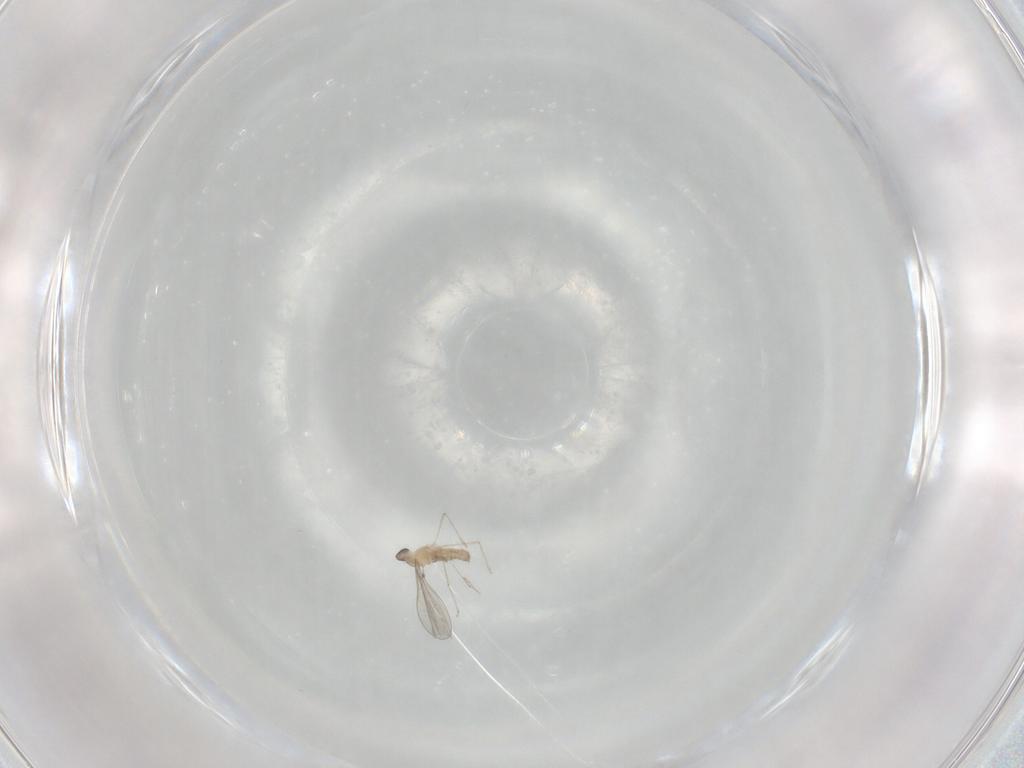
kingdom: Animalia
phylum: Arthropoda
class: Insecta
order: Diptera
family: Cecidomyiidae
